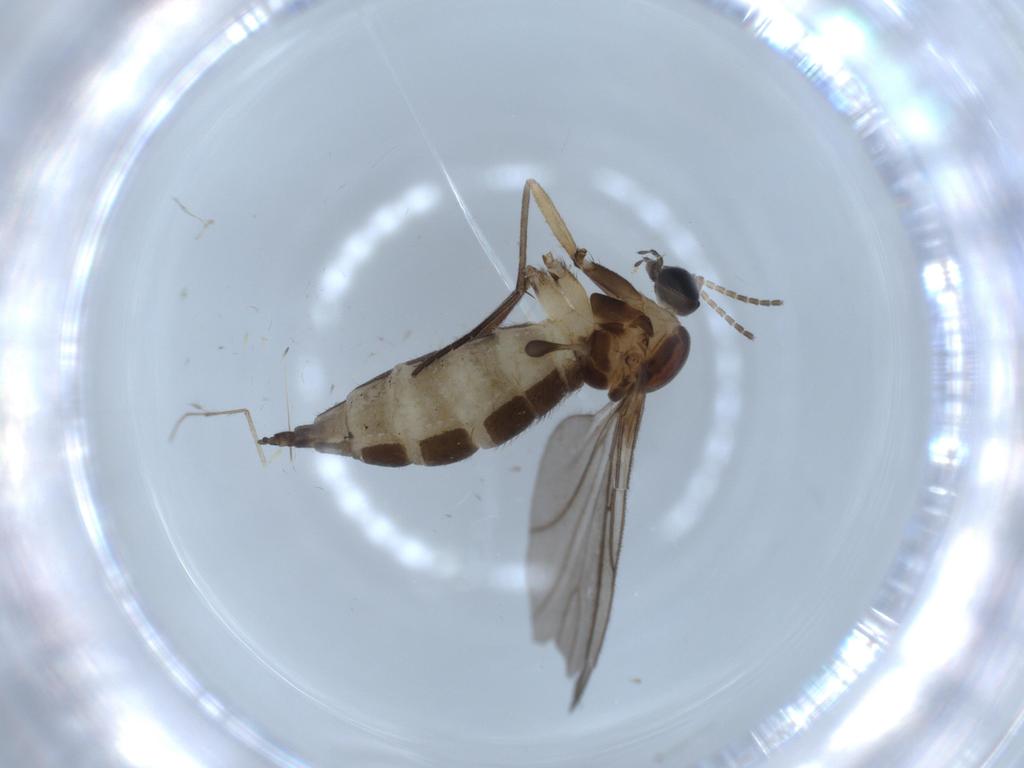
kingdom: Animalia
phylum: Arthropoda
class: Insecta
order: Diptera
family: Sciaridae
